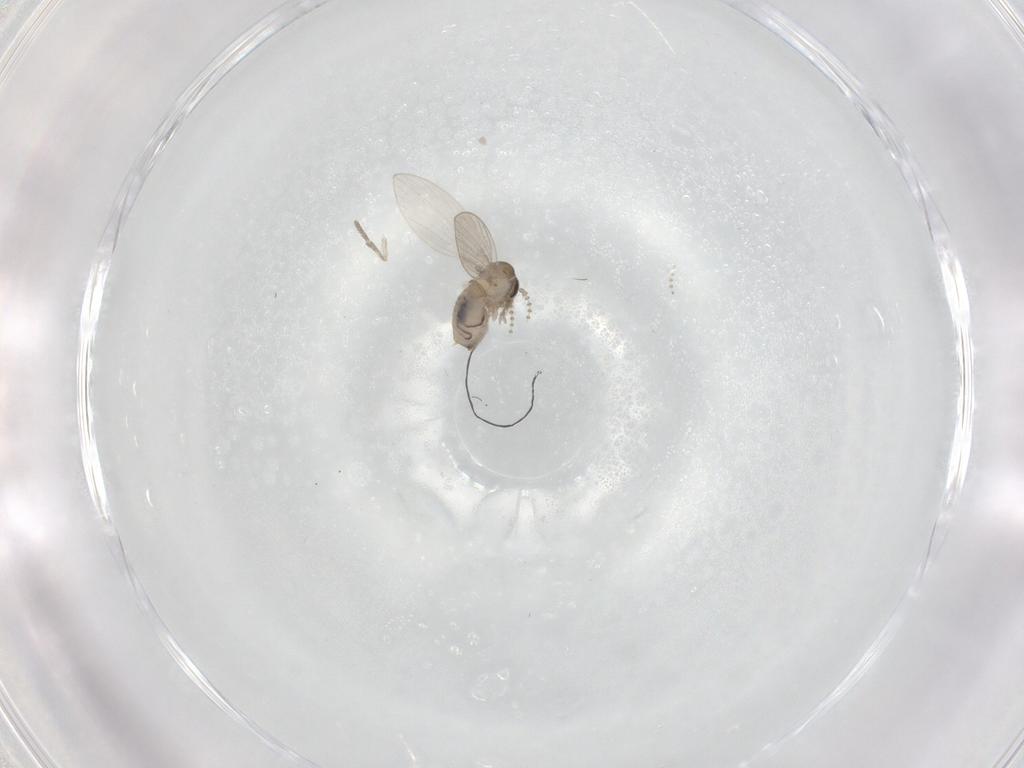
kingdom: Animalia
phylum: Arthropoda
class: Insecta
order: Diptera
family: Psychodidae
